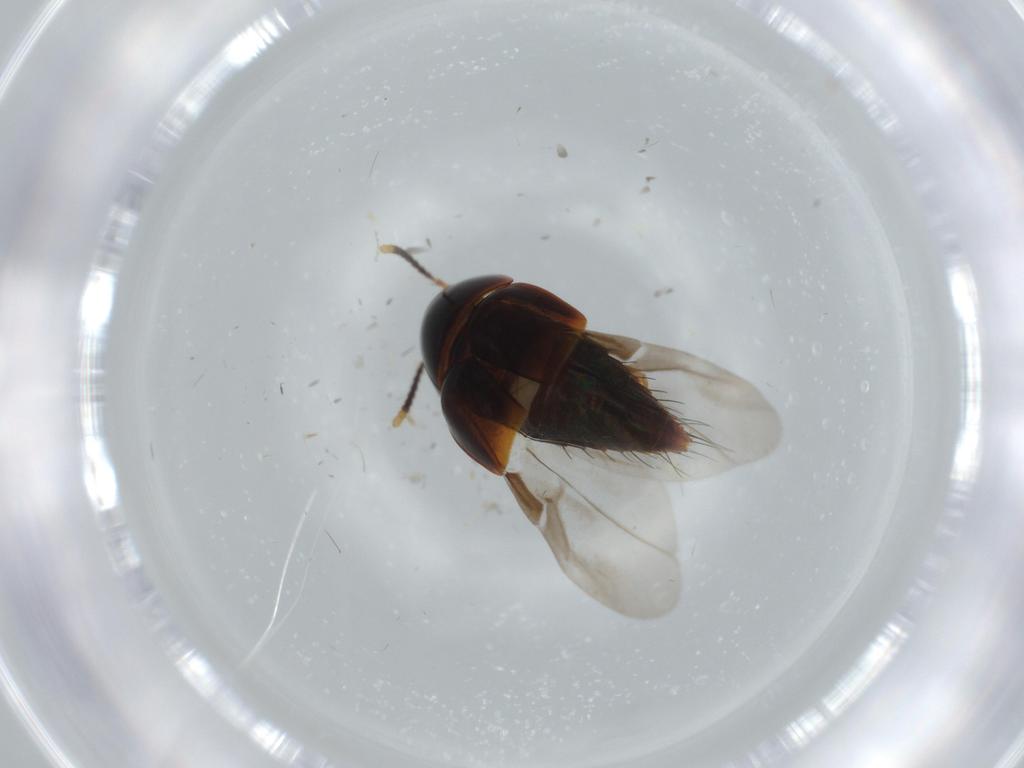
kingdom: Animalia
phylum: Arthropoda
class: Insecta
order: Coleoptera
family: Staphylinidae
